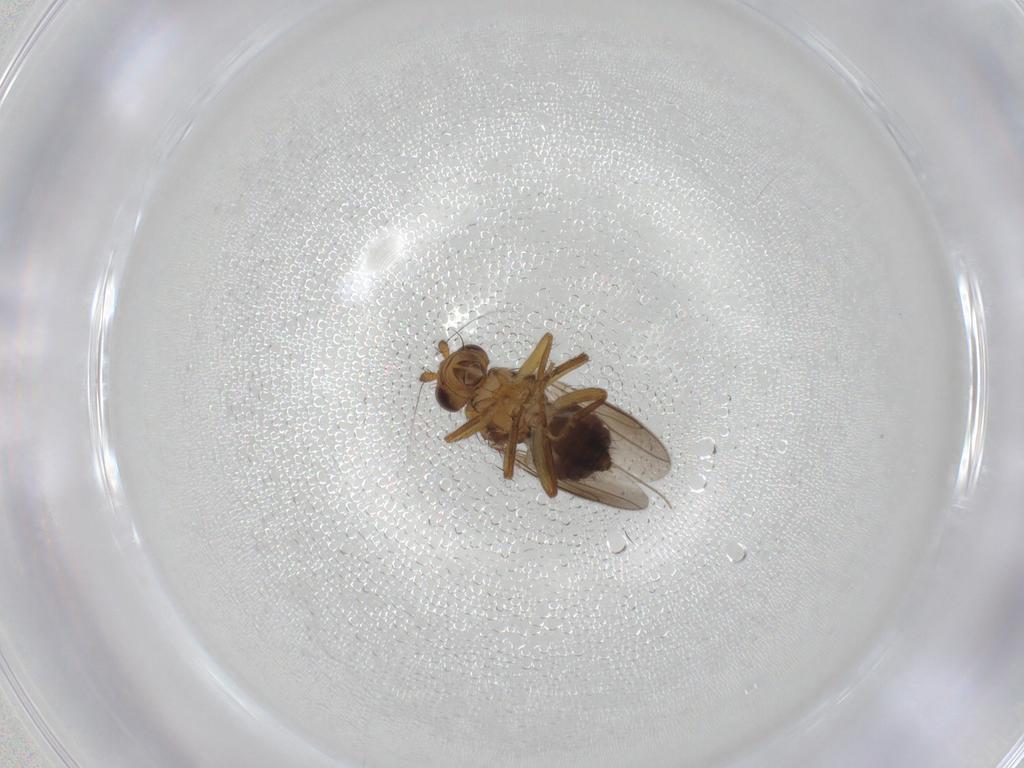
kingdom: Animalia
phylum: Arthropoda
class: Insecta
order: Diptera
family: Sphaeroceridae
